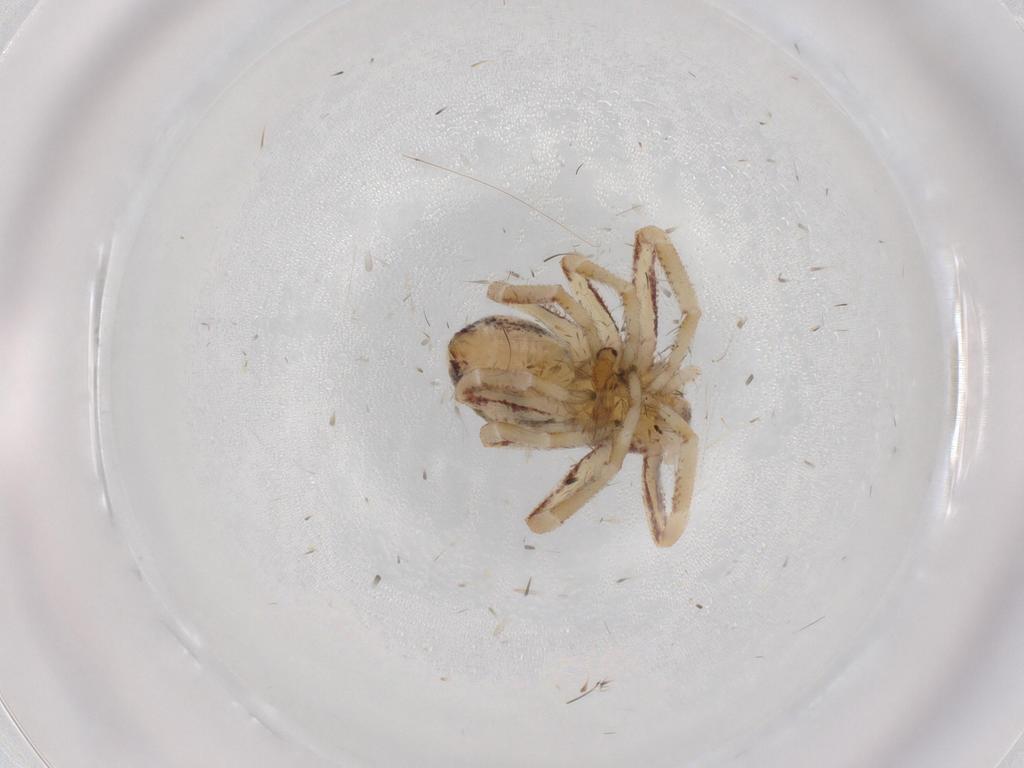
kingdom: Animalia
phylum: Arthropoda
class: Arachnida
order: Araneae
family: Philodromidae
